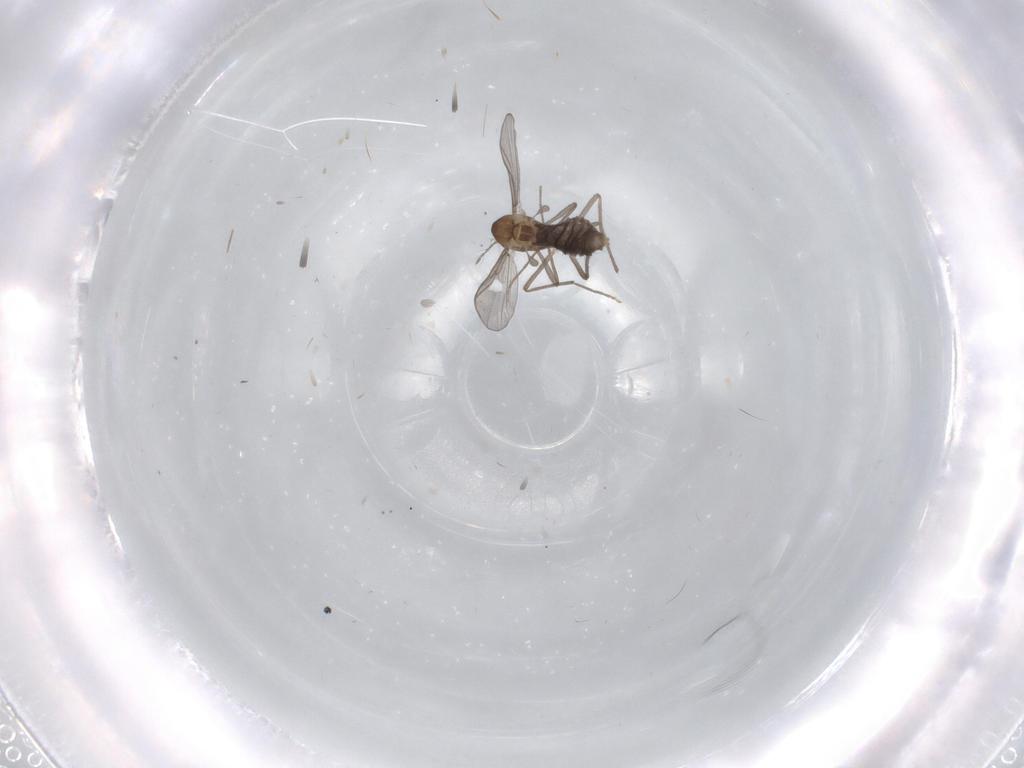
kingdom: Animalia
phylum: Arthropoda
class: Insecta
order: Diptera
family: Chironomidae
